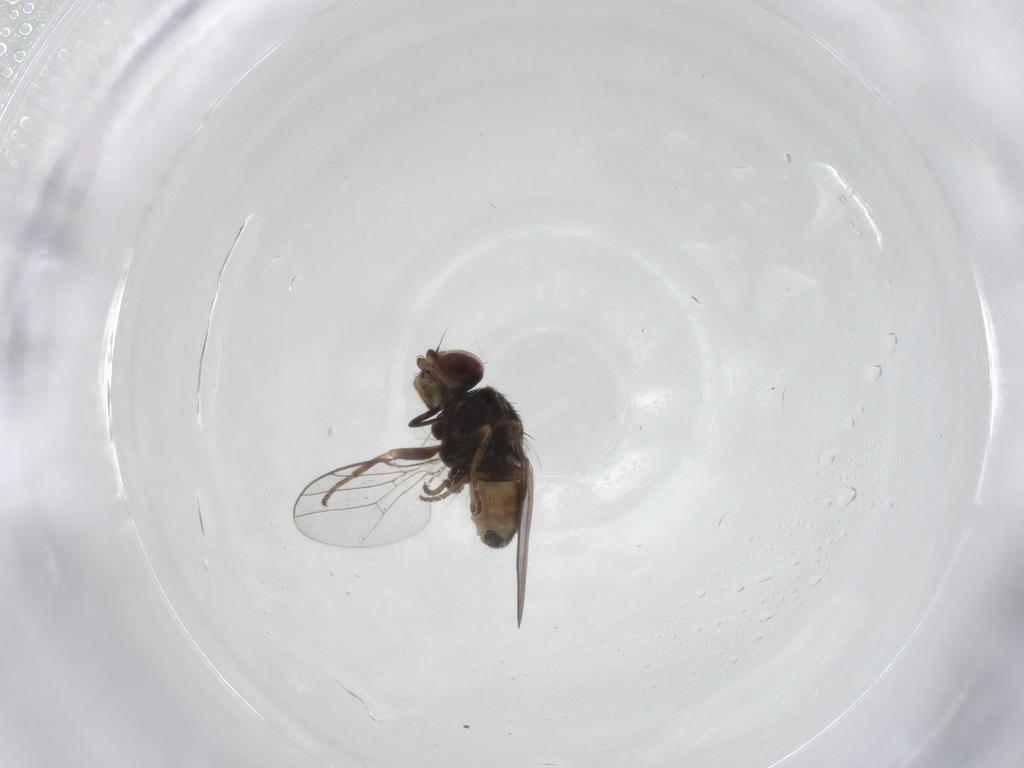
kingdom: Animalia
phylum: Arthropoda
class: Insecta
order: Diptera
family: Chloropidae
